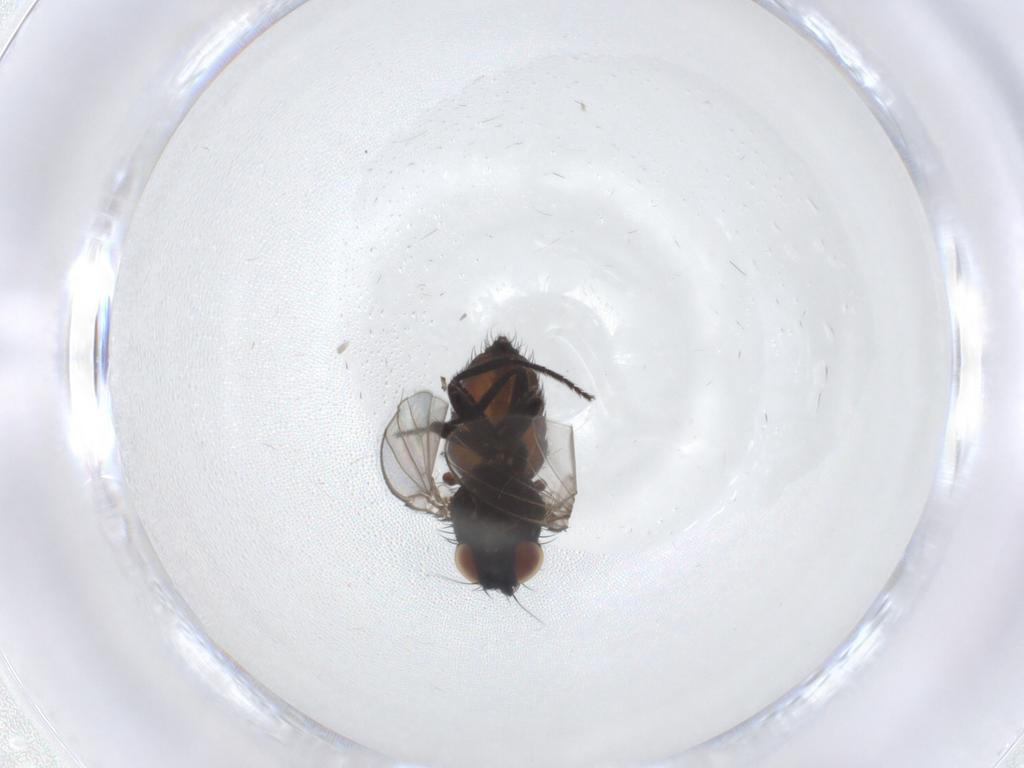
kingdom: Animalia
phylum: Arthropoda
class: Insecta
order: Diptera
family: Milichiidae
